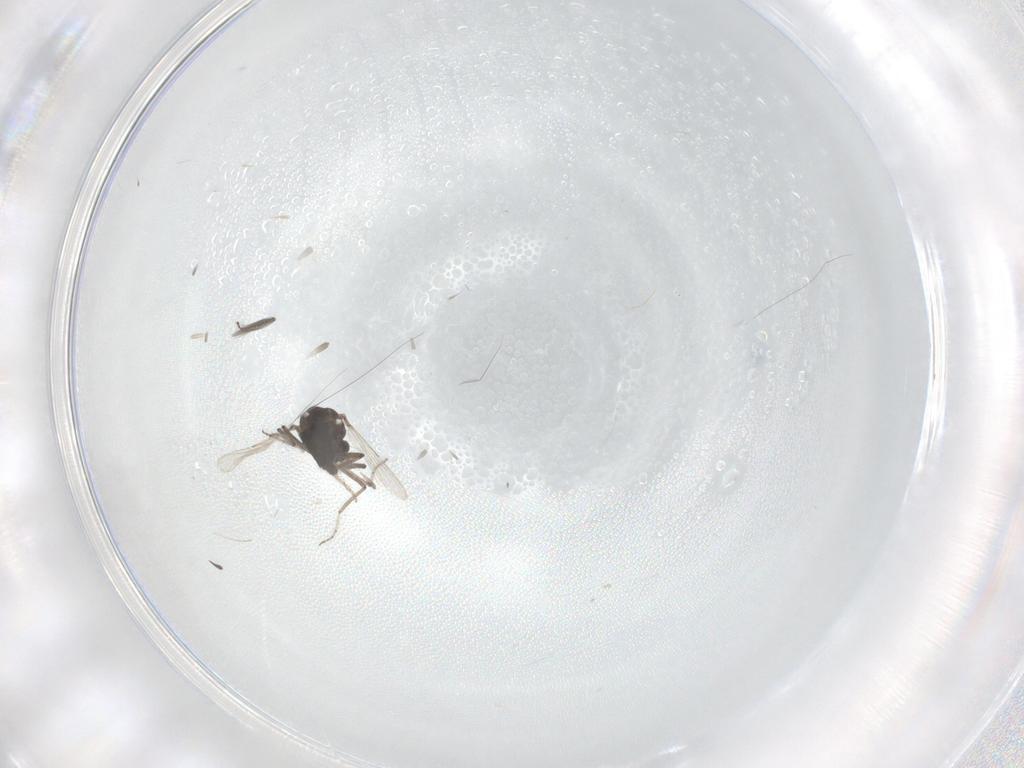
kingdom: Animalia
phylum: Arthropoda
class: Insecta
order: Diptera
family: Ceratopogonidae
